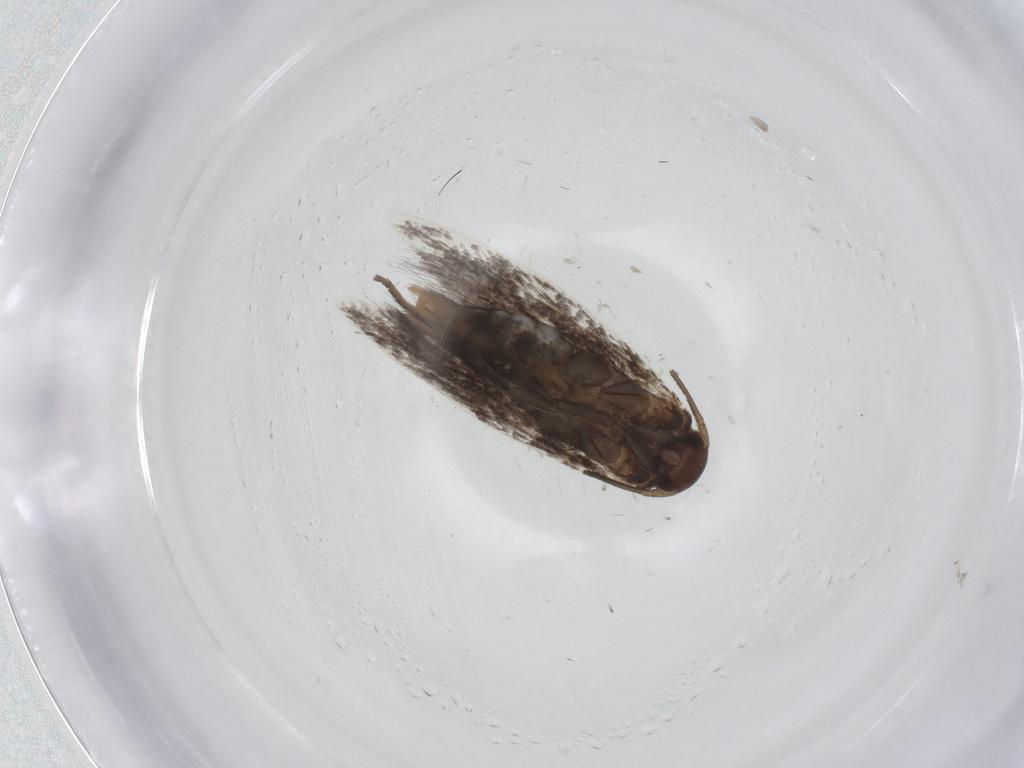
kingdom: Animalia
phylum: Arthropoda
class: Insecta
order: Lepidoptera
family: Elachistidae
